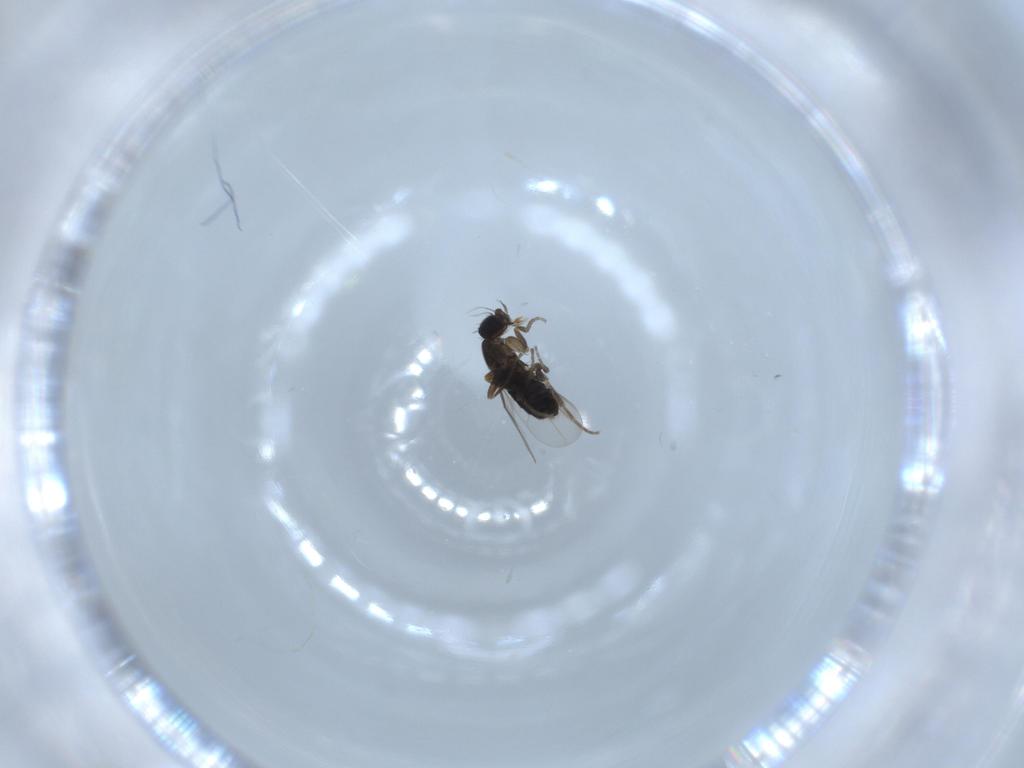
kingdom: Animalia
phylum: Arthropoda
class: Insecta
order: Diptera
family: Phoridae
